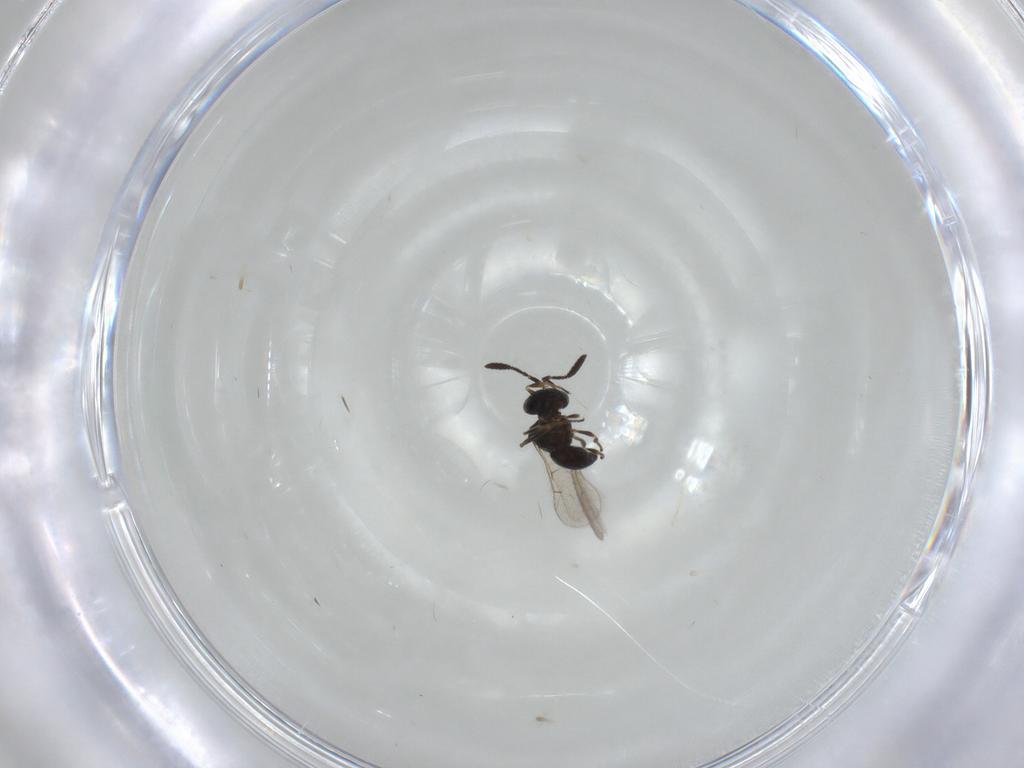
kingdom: Animalia
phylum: Arthropoda
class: Insecta
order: Hymenoptera
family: Scelionidae
